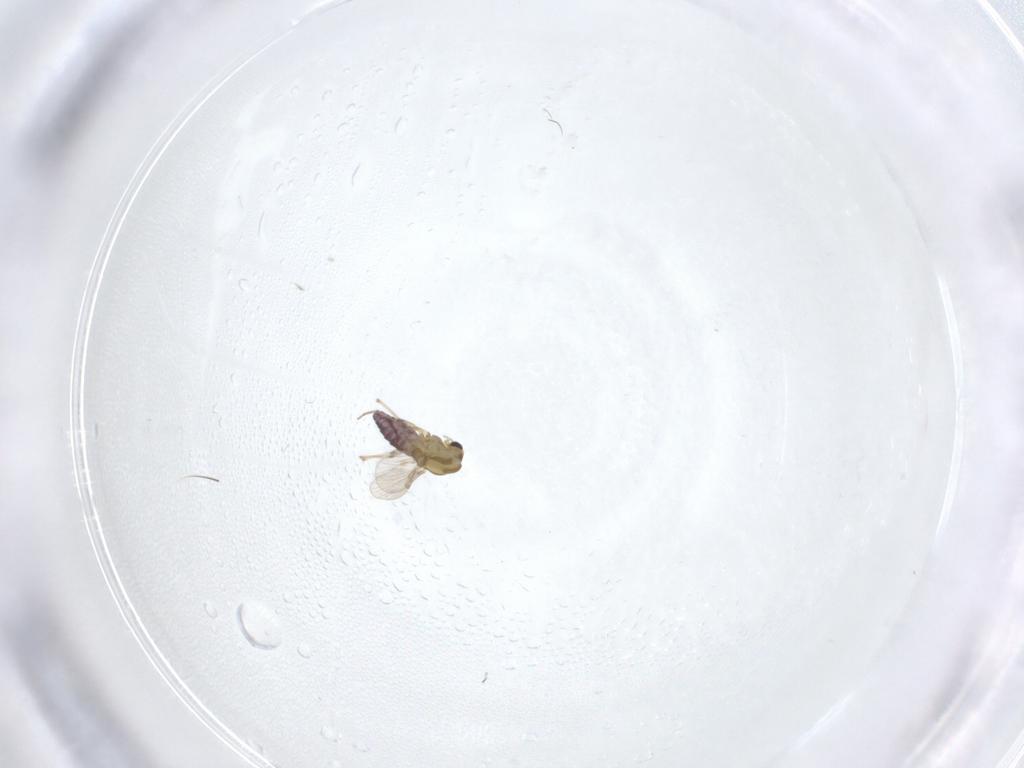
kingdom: Animalia
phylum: Arthropoda
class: Insecta
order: Diptera
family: Chironomidae
